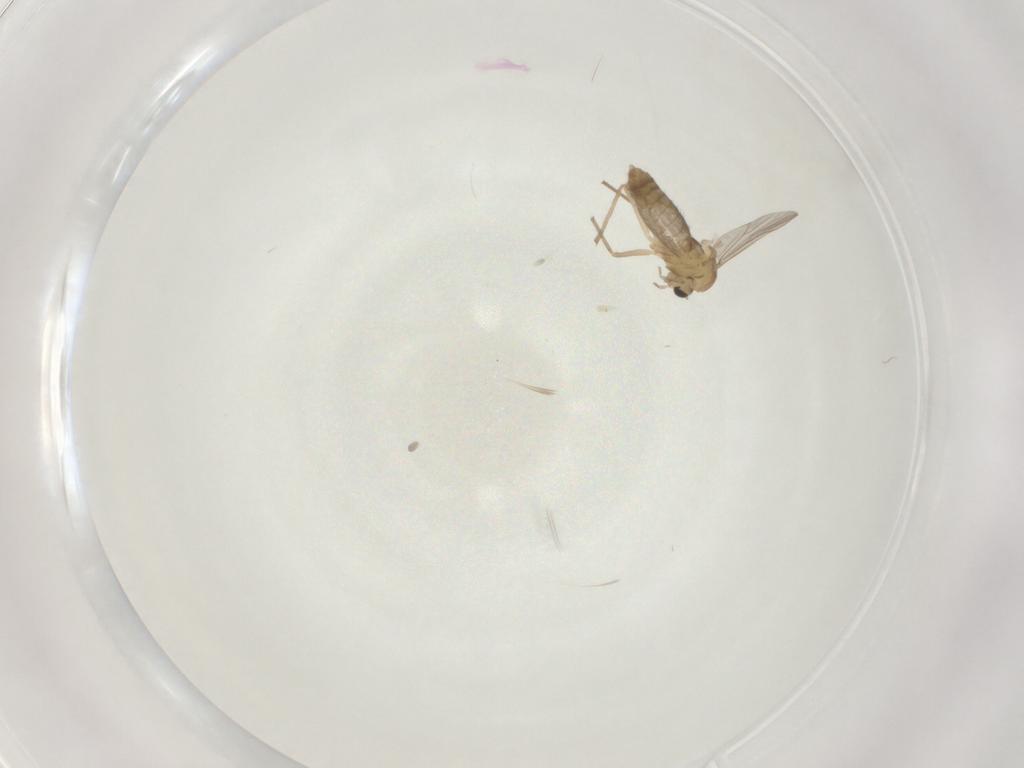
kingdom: Animalia
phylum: Arthropoda
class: Insecta
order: Diptera
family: Chironomidae
